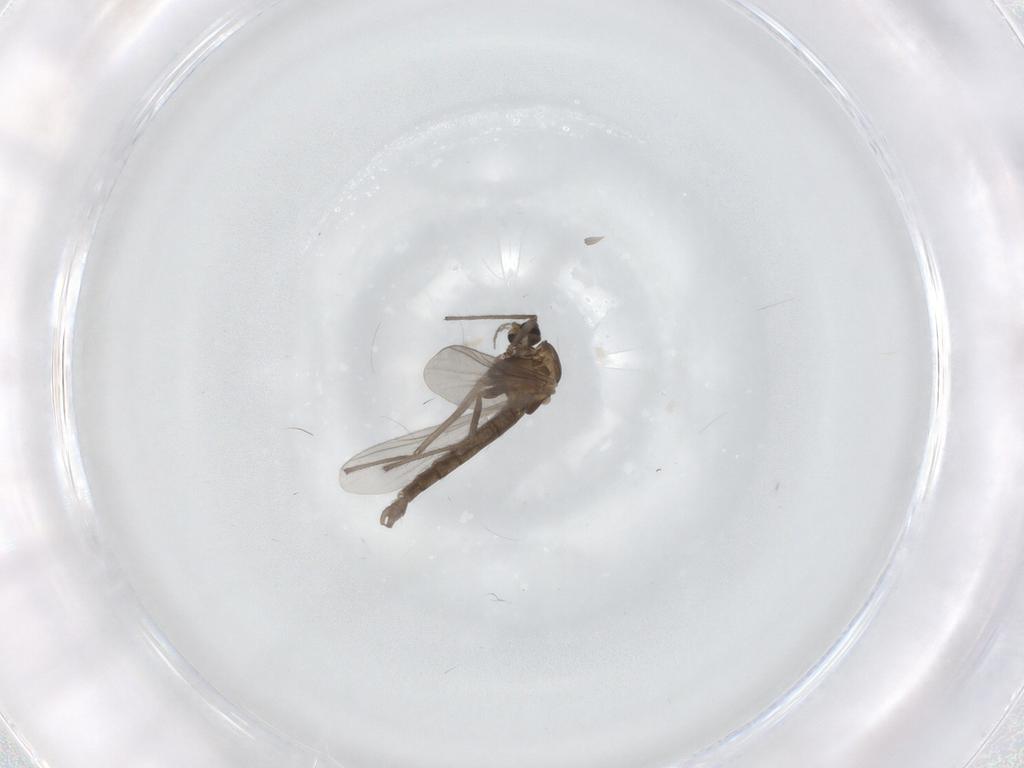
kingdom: Animalia
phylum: Arthropoda
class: Insecta
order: Diptera
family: Chironomidae
